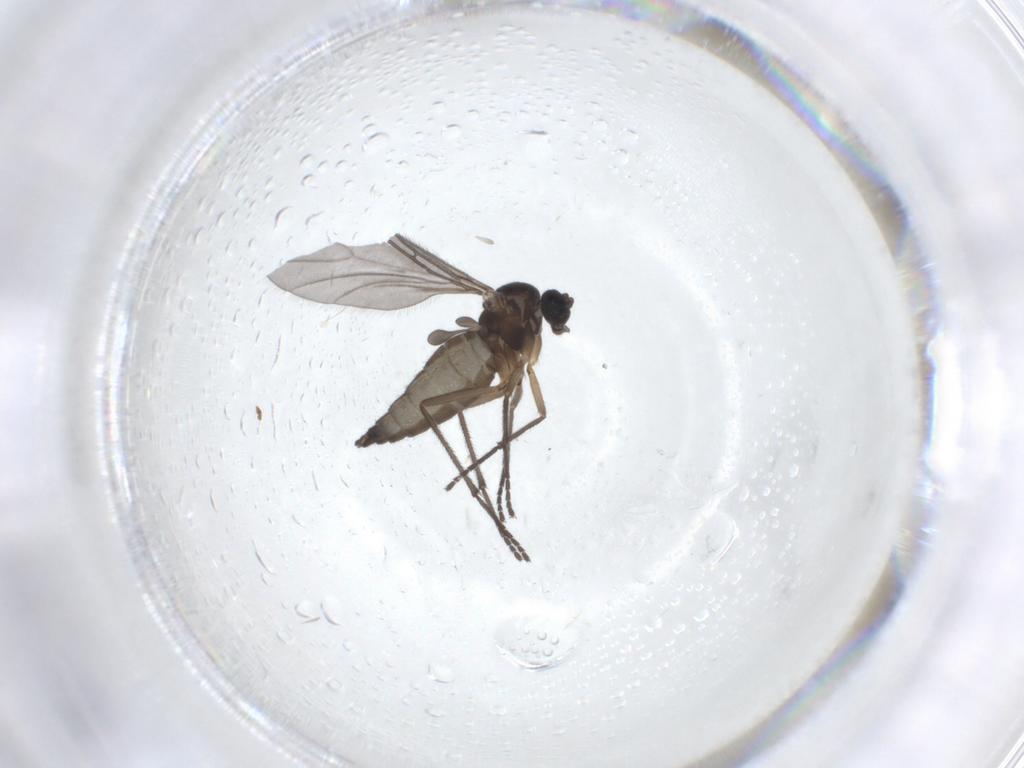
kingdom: Animalia
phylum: Arthropoda
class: Insecta
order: Diptera
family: Sciaridae
